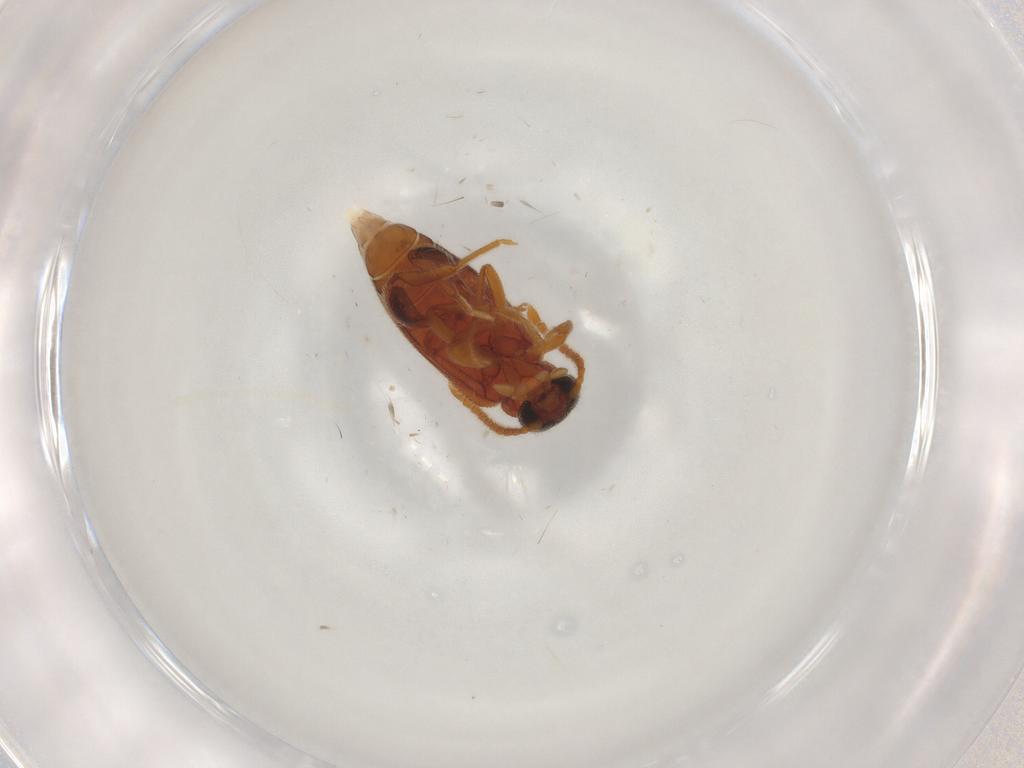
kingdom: Animalia
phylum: Arthropoda
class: Insecta
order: Coleoptera
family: Aderidae
